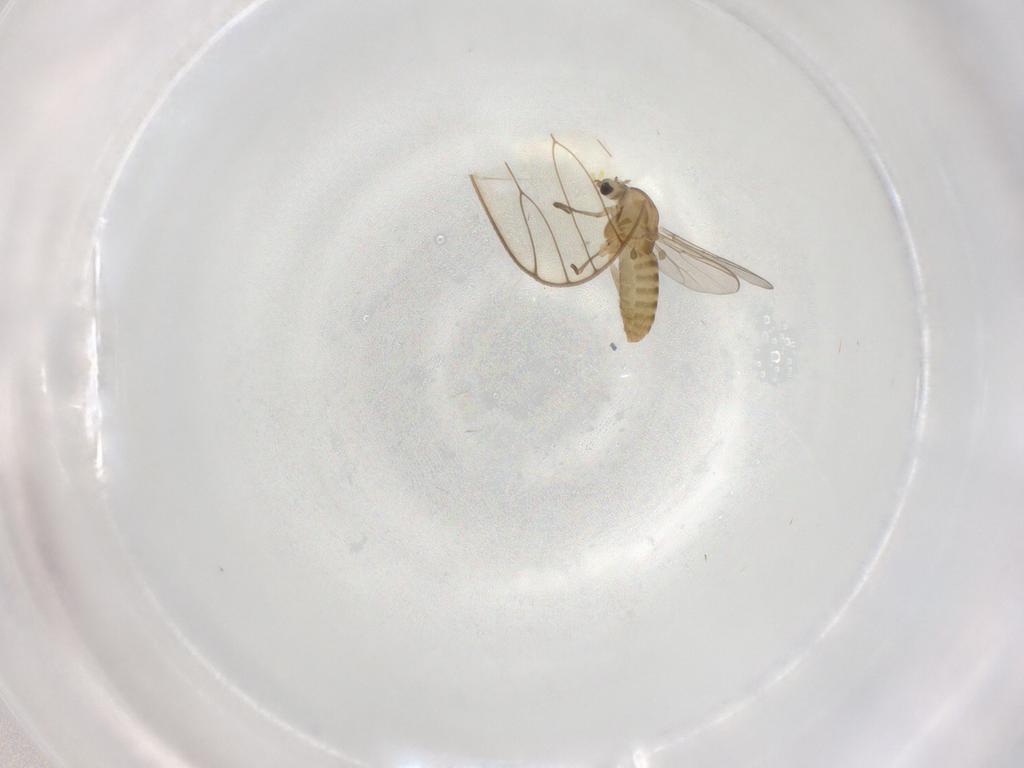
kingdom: Animalia
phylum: Arthropoda
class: Insecta
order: Diptera
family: Chironomidae
